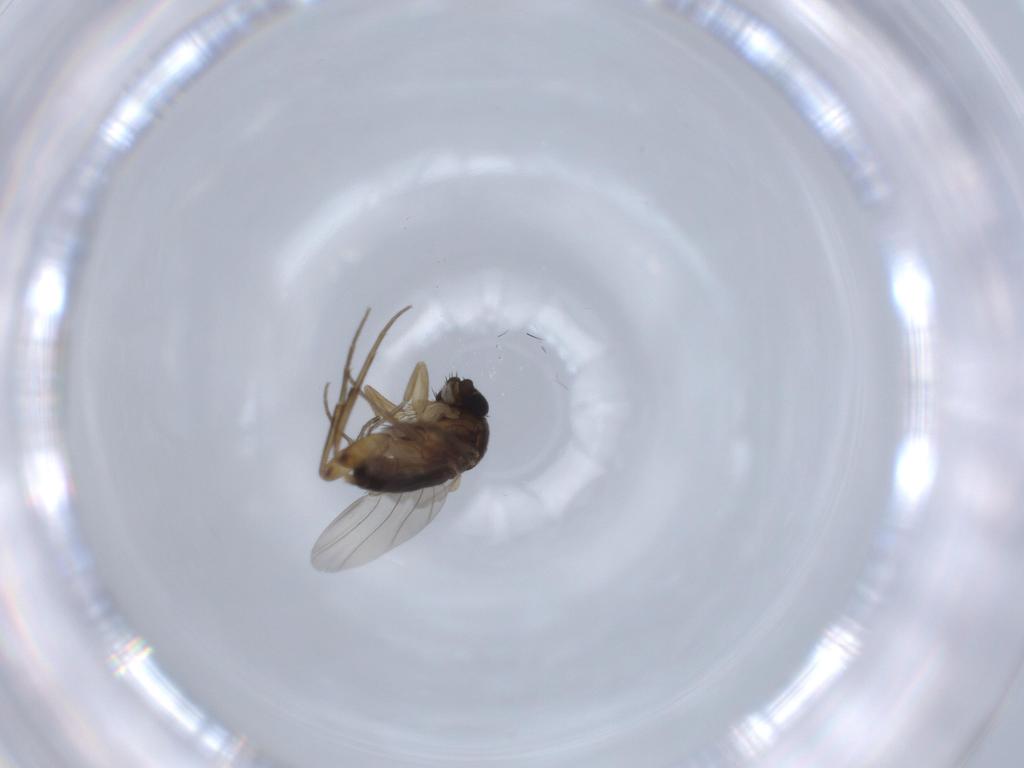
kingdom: Animalia
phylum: Arthropoda
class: Insecta
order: Diptera
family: Phoridae
